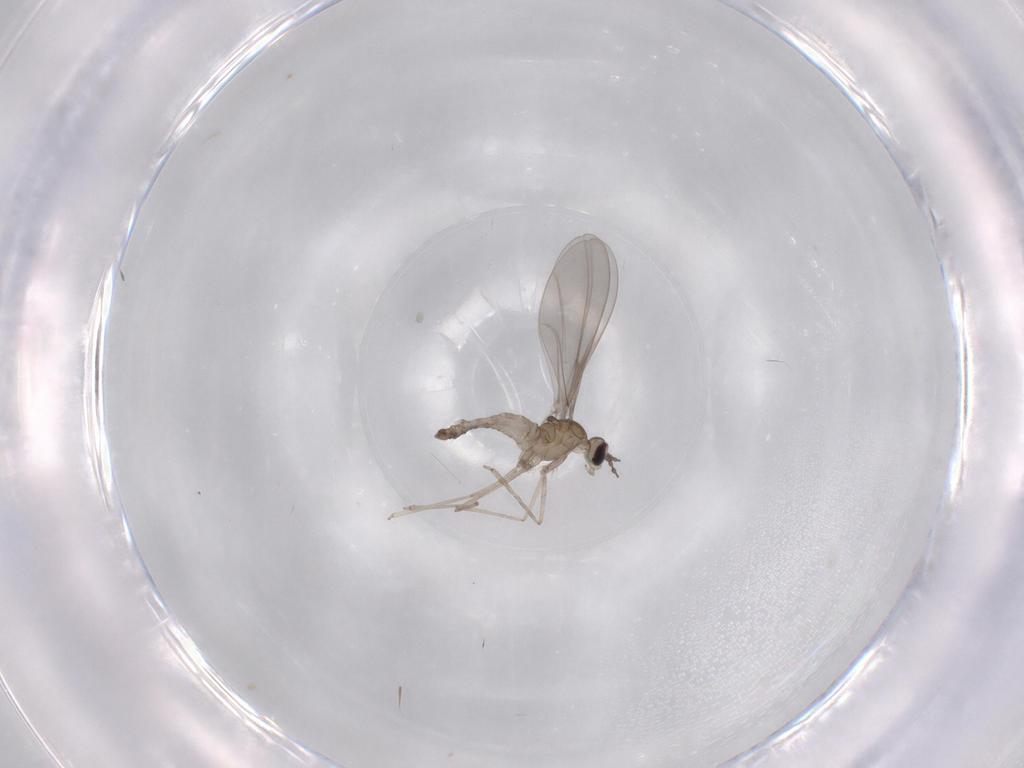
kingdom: Animalia
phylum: Arthropoda
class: Insecta
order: Diptera
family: Cecidomyiidae
